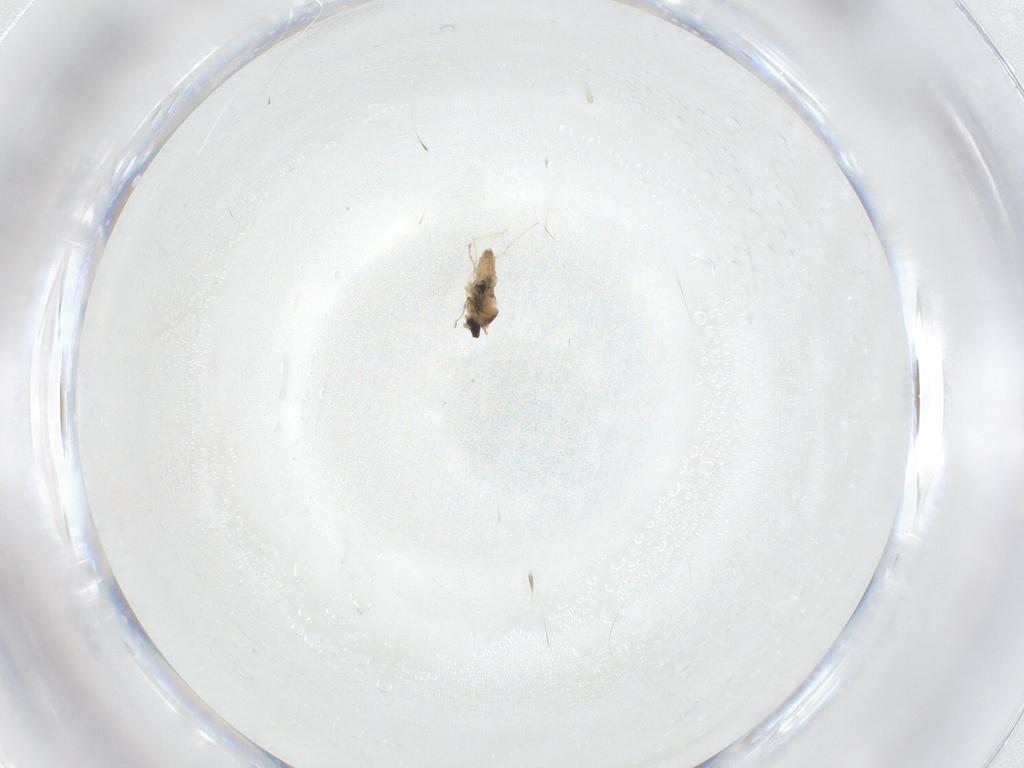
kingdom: Animalia
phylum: Arthropoda
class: Insecta
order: Diptera
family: Cecidomyiidae
